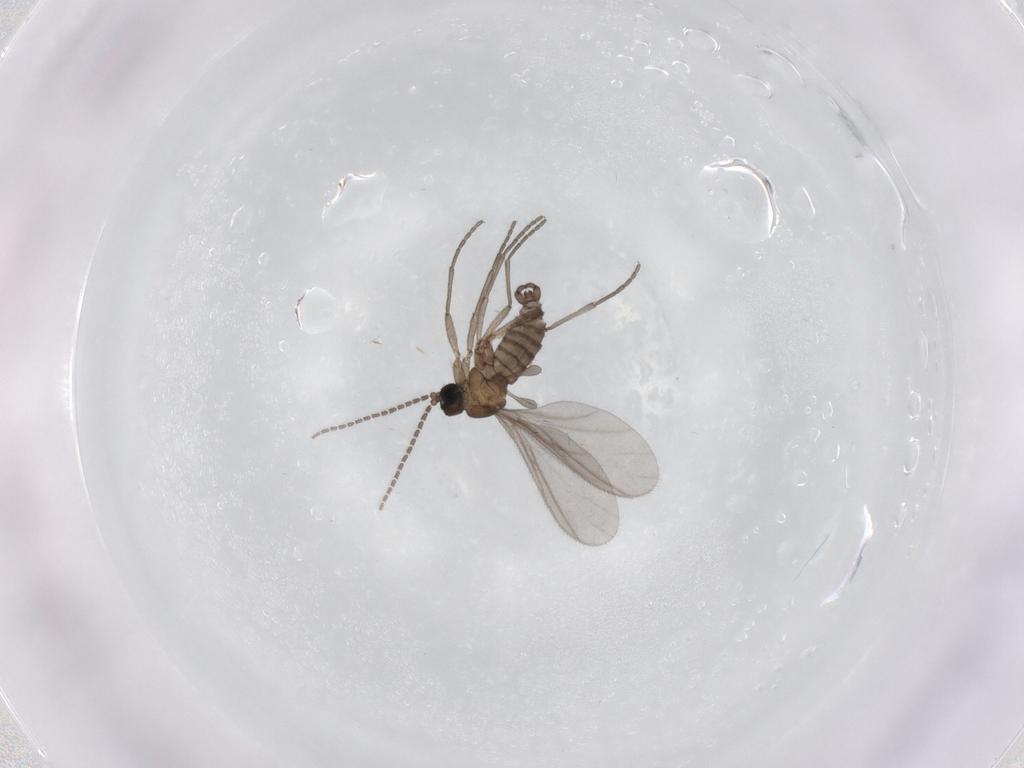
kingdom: Animalia
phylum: Arthropoda
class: Insecta
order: Diptera
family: Sciaridae
